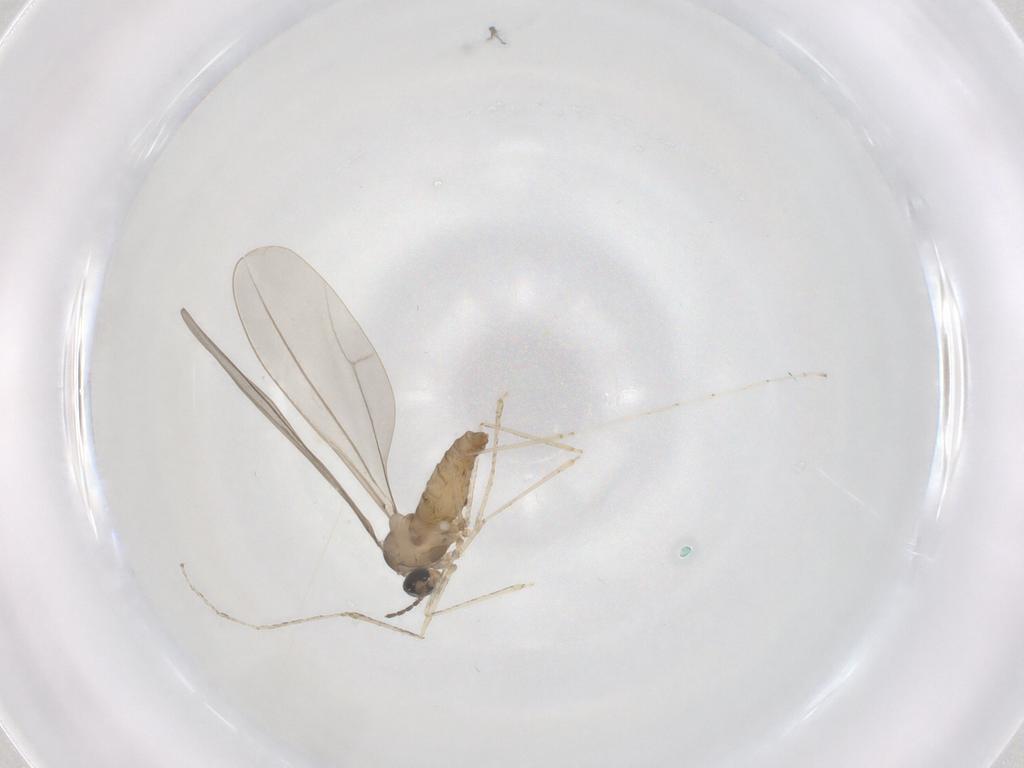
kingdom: Animalia
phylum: Arthropoda
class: Insecta
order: Diptera
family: Cecidomyiidae
